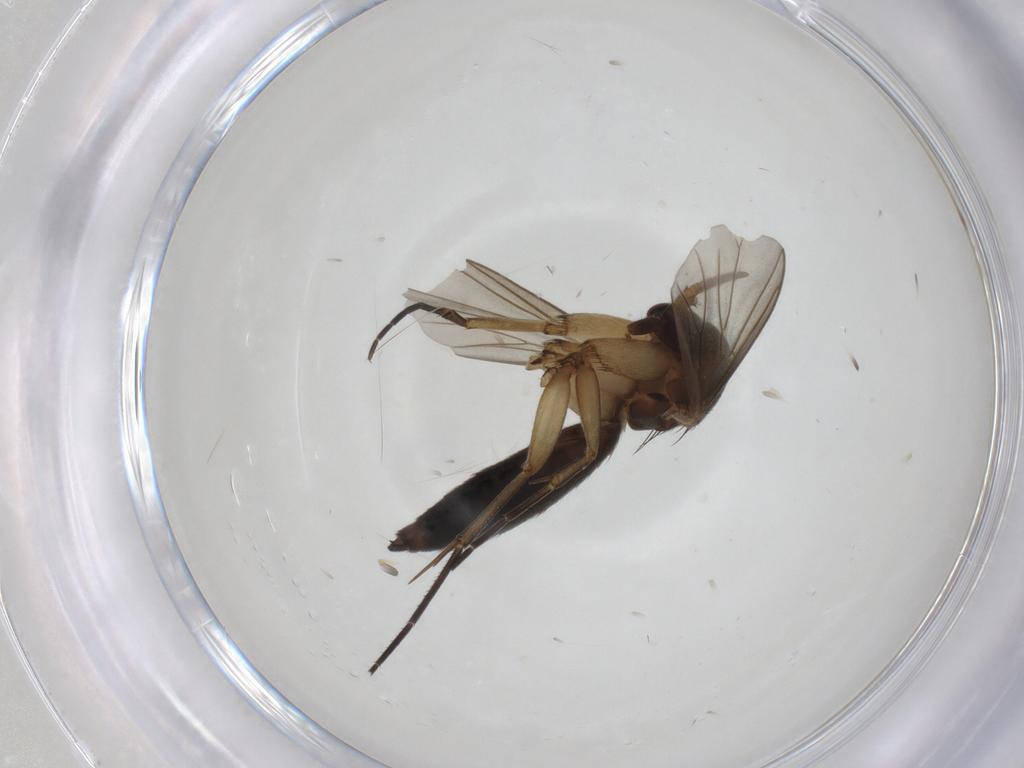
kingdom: Animalia
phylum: Arthropoda
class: Insecta
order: Diptera
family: Mycetophilidae
